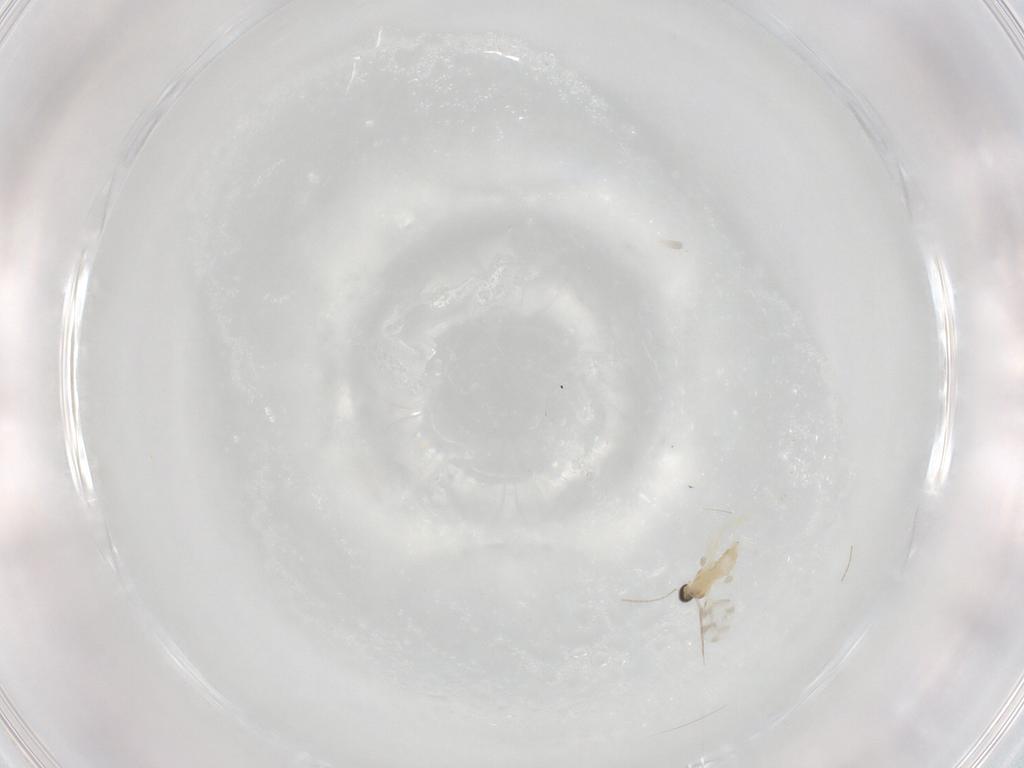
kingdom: Animalia
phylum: Arthropoda
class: Insecta
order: Diptera
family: Cecidomyiidae
